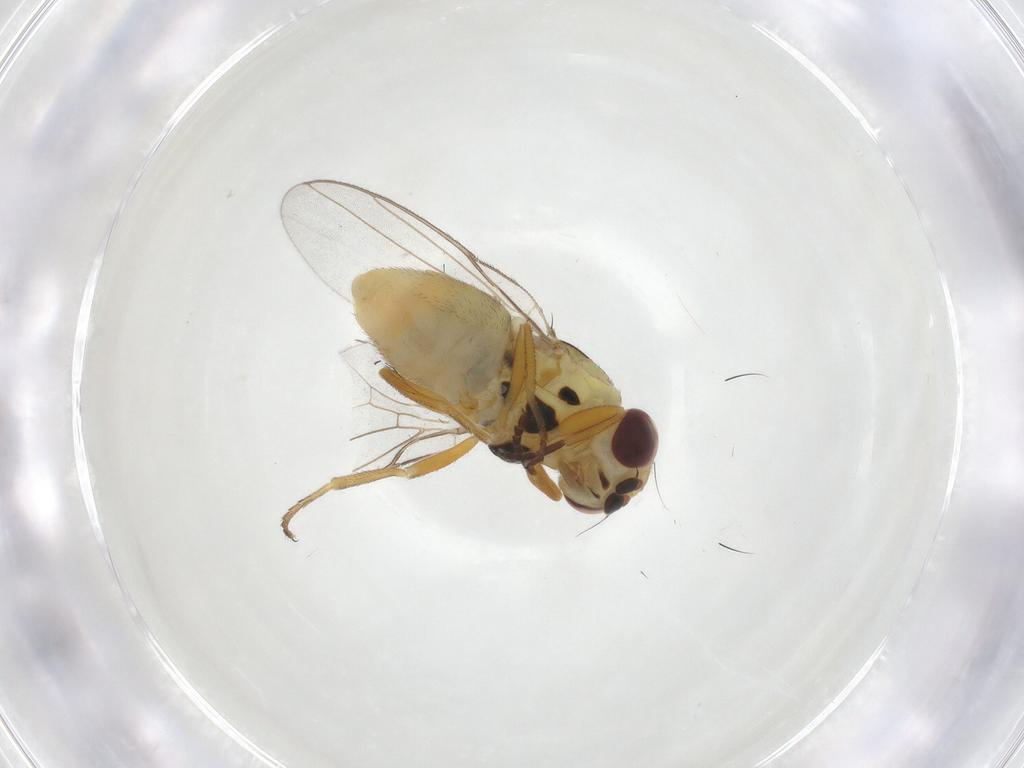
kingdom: Animalia
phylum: Arthropoda
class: Insecta
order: Diptera
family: Chloropidae
